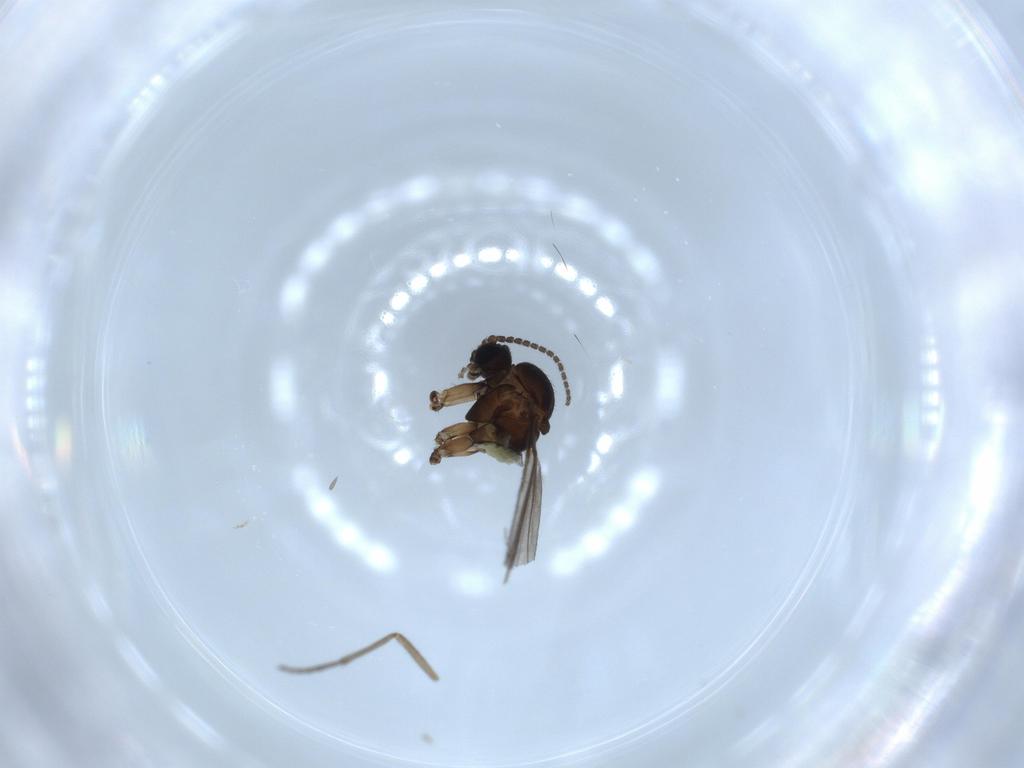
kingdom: Animalia
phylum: Arthropoda
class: Insecta
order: Diptera
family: Sciaridae
